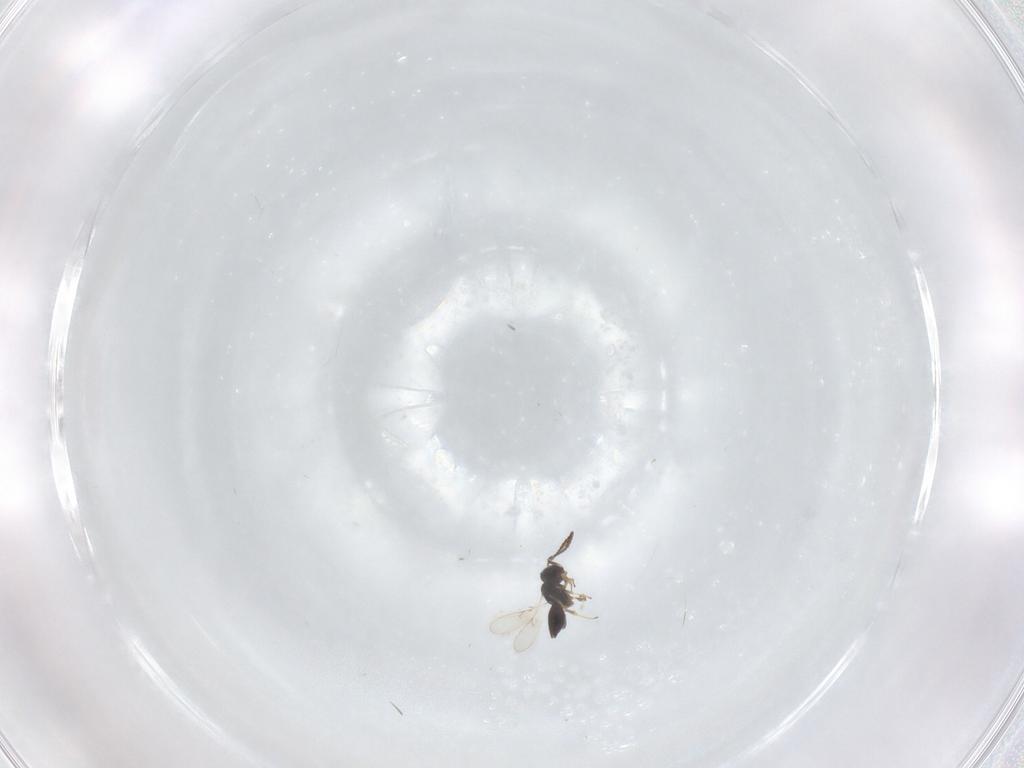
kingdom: Animalia
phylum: Arthropoda
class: Insecta
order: Hymenoptera
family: Scelionidae
